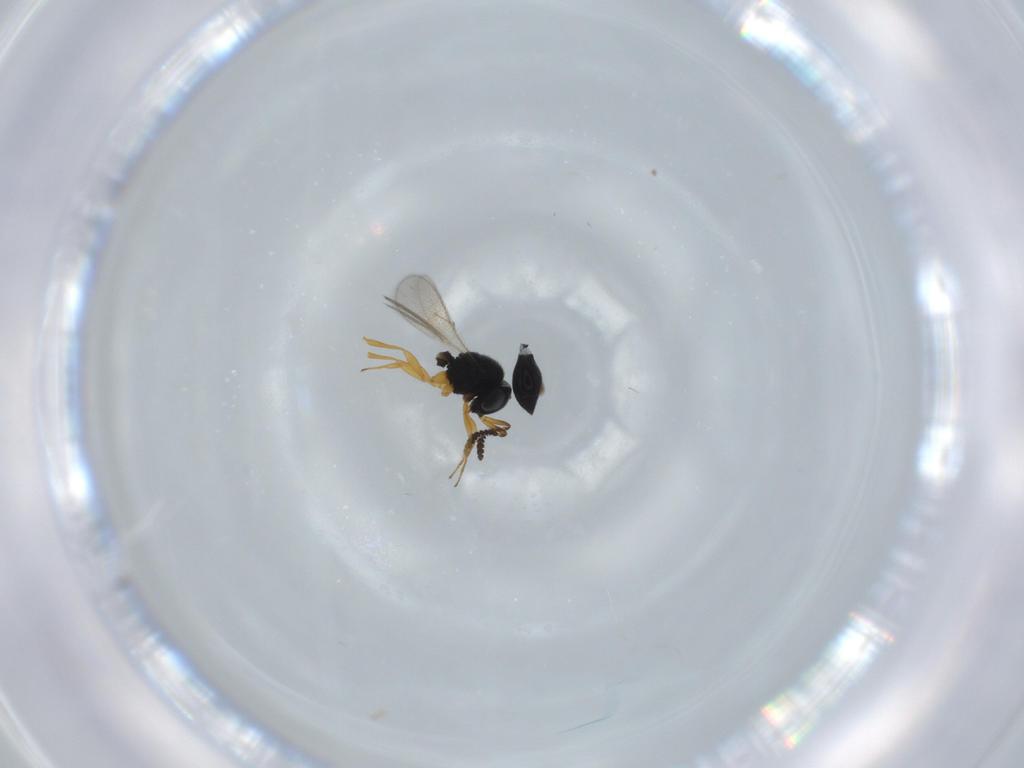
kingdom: Animalia
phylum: Arthropoda
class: Insecta
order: Hymenoptera
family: Scelionidae
